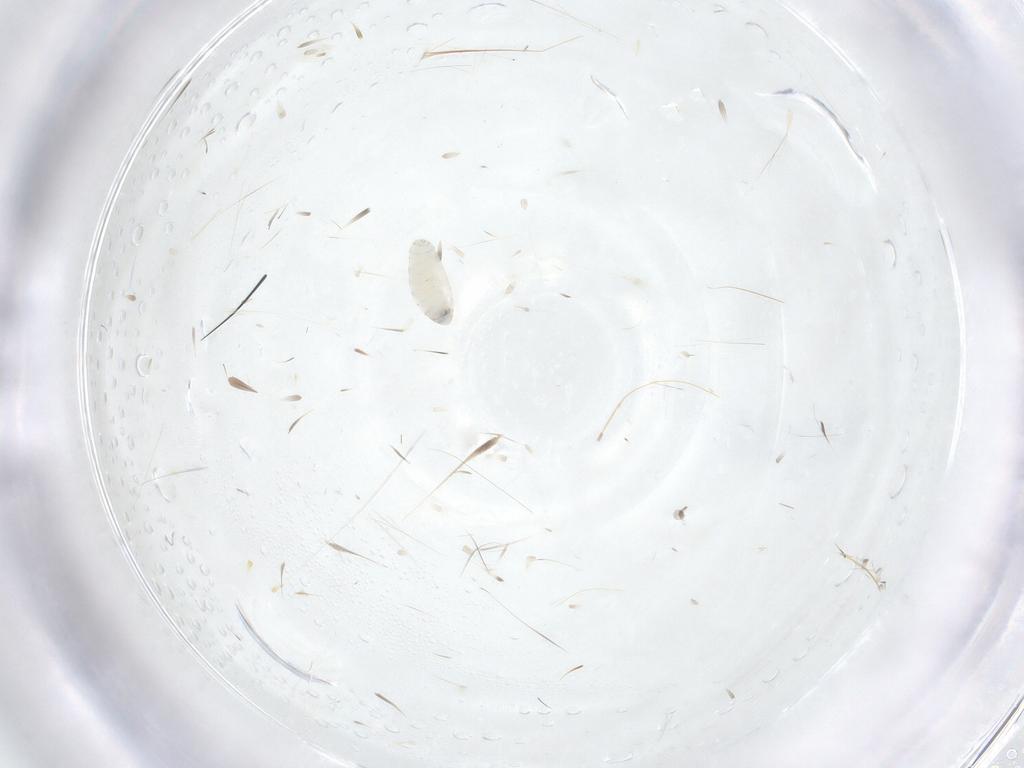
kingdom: Animalia
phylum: Arthropoda
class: Insecta
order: Diptera
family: Tachinidae
